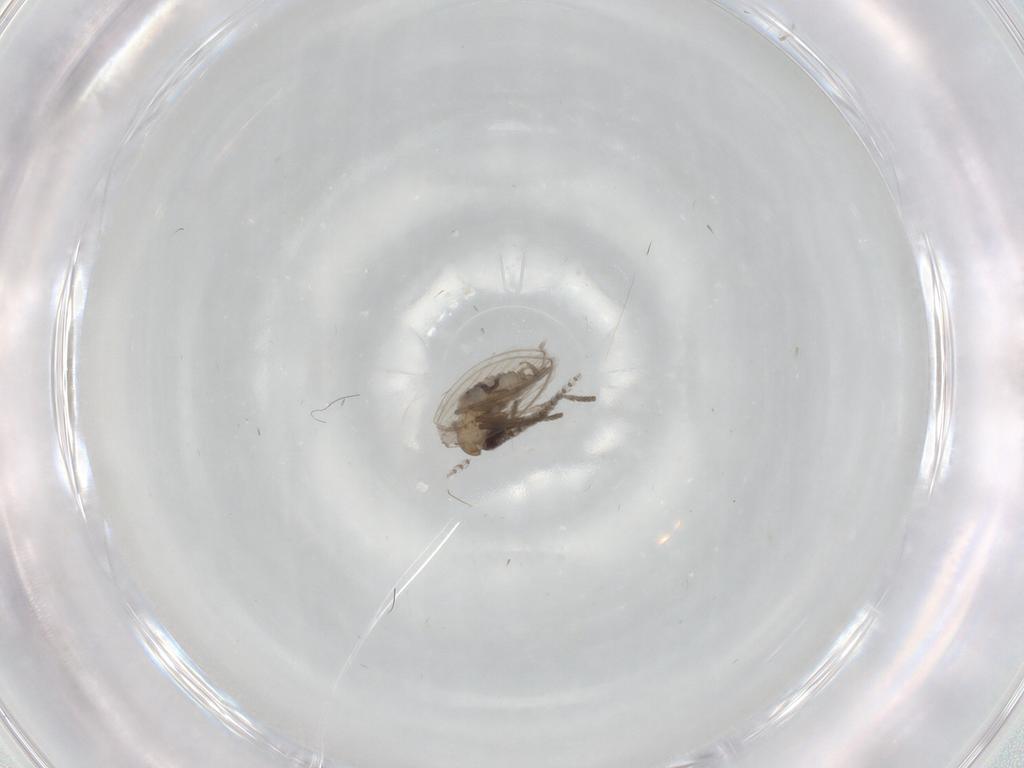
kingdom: Animalia
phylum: Arthropoda
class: Insecta
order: Diptera
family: Psychodidae
